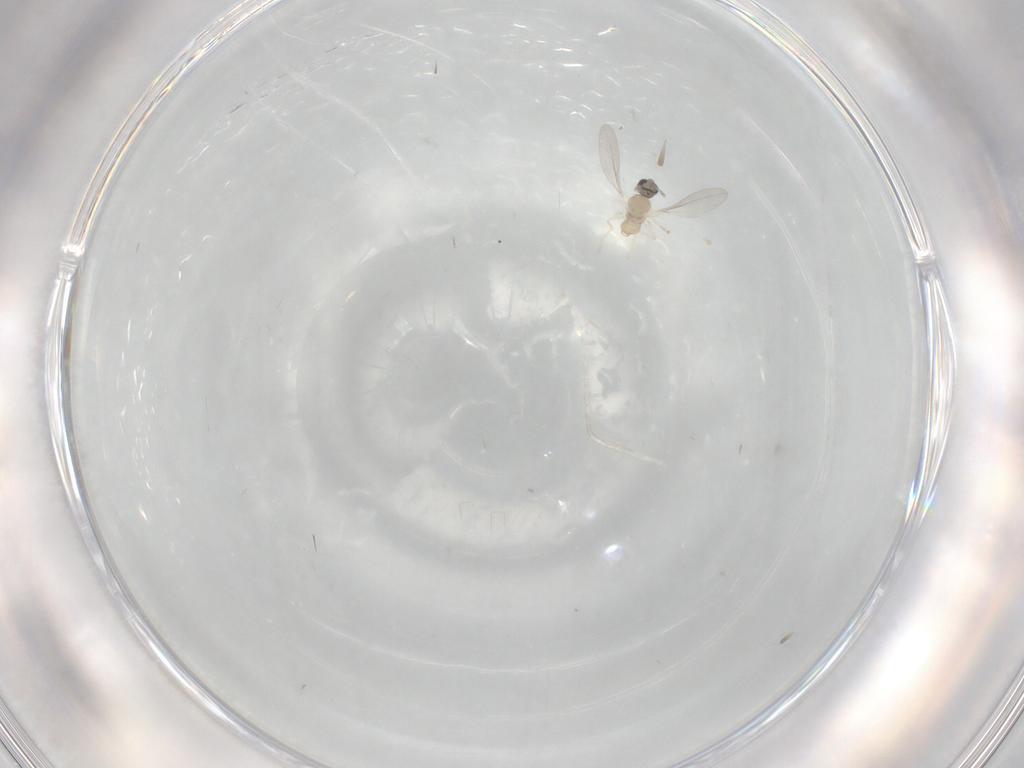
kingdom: Animalia
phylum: Arthropoda
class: Insecta
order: Diptera
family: Cecidomyiidae
